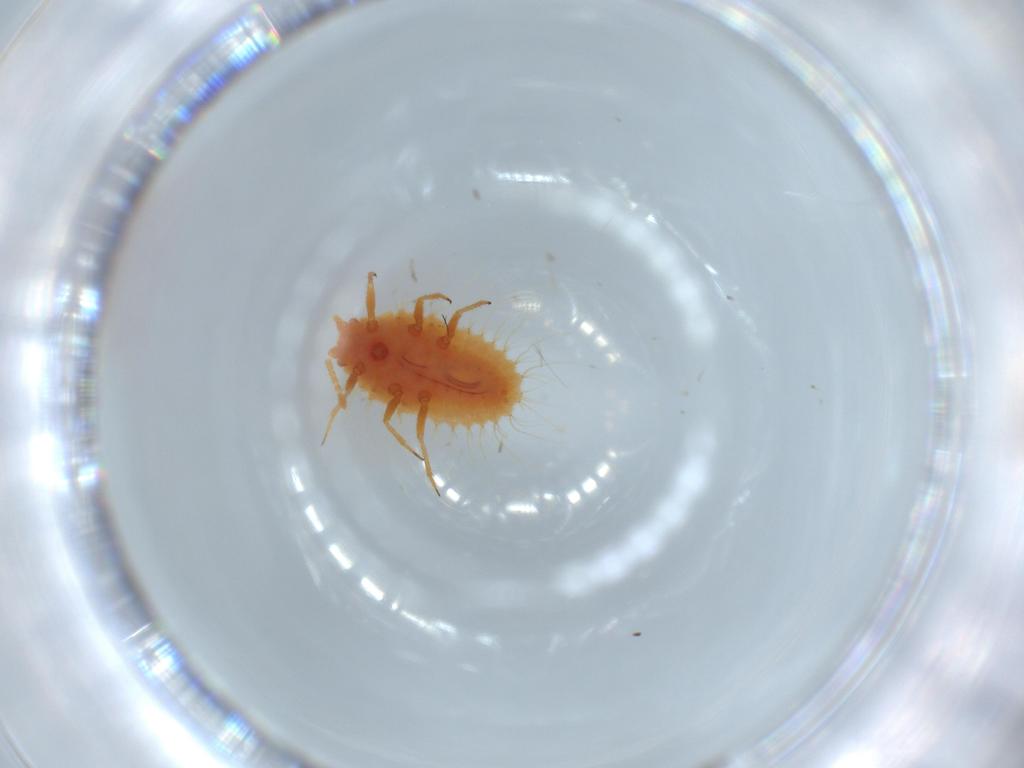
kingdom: Animalia
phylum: Arthropoda
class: Insecta
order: Hemiptera
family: Coccoidea_incertae_sedis
